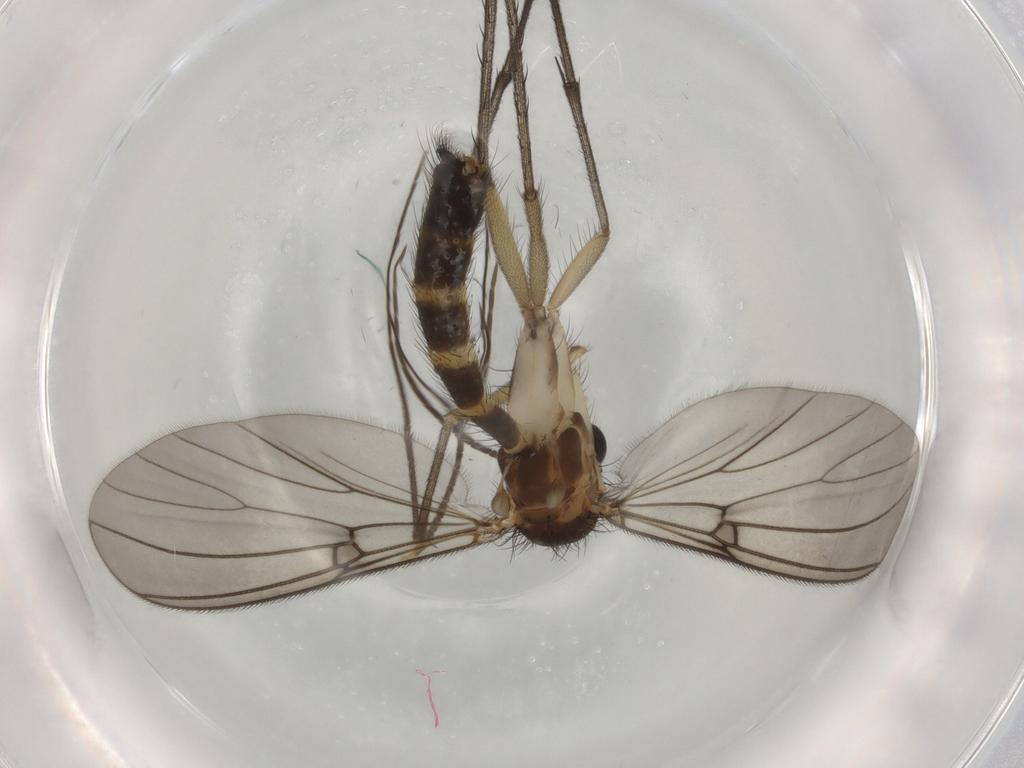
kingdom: Animalia
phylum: Arthropoda
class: Insecta
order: Diptera
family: Mycetophilidae
